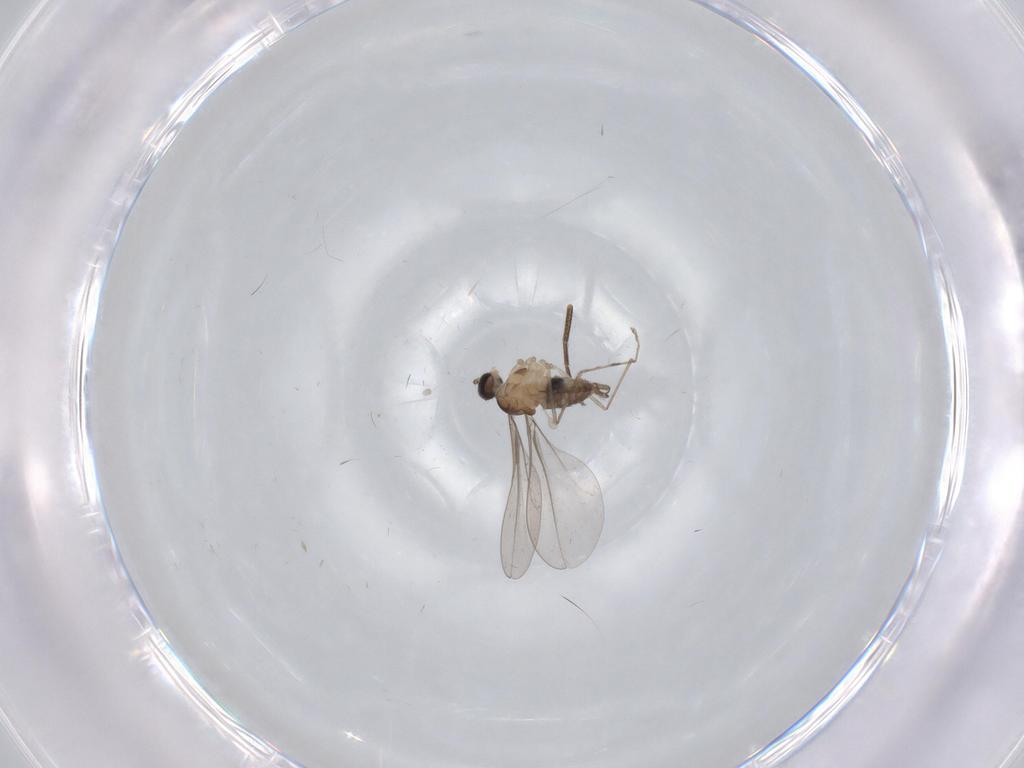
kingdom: Animalia
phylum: Arthropoda
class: Insecta
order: Diptera
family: Cecidomyiidae
